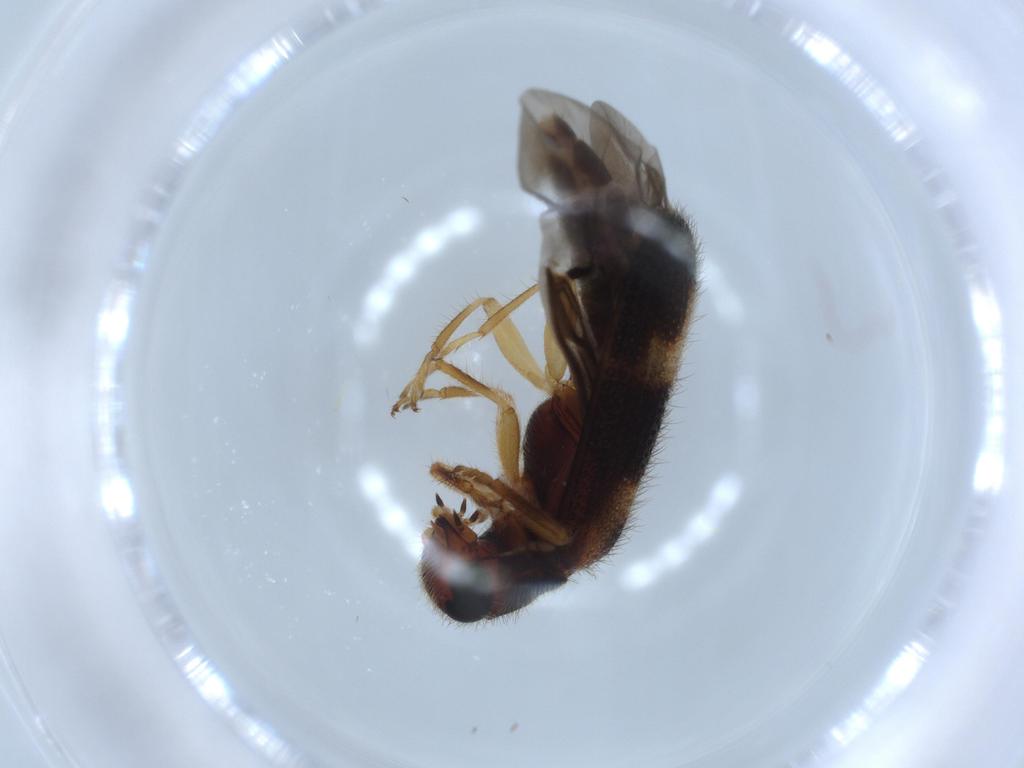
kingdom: Animalia
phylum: Arthropoda
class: Insecta
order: Coleoptera
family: Cleridae
